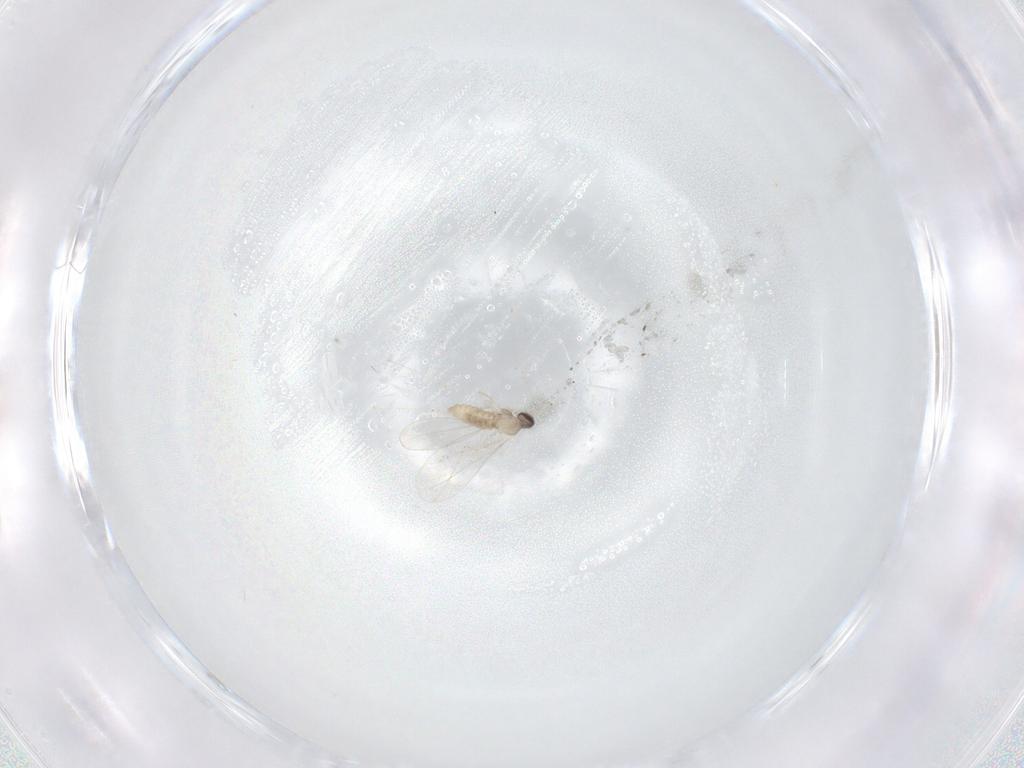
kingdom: Animalia
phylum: Arthropoda
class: Insecta
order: Diptera
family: Cecidomyiidae
